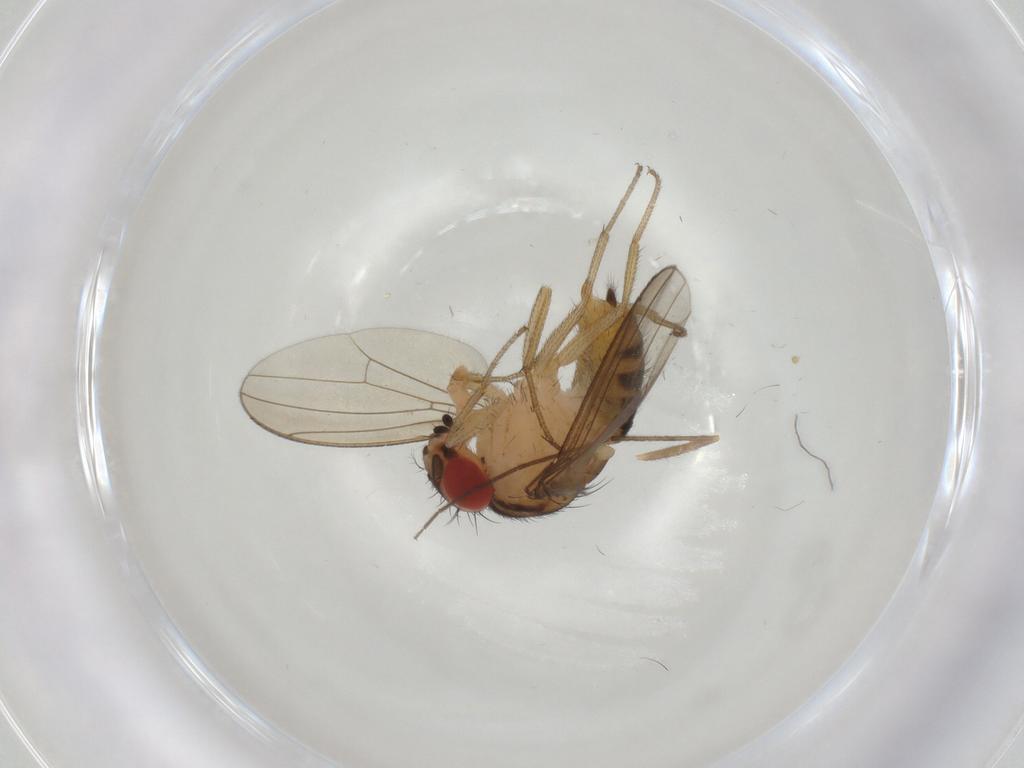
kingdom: Animalia
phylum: Arthropoda
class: Insecta
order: Diptera
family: Drosophilidae
